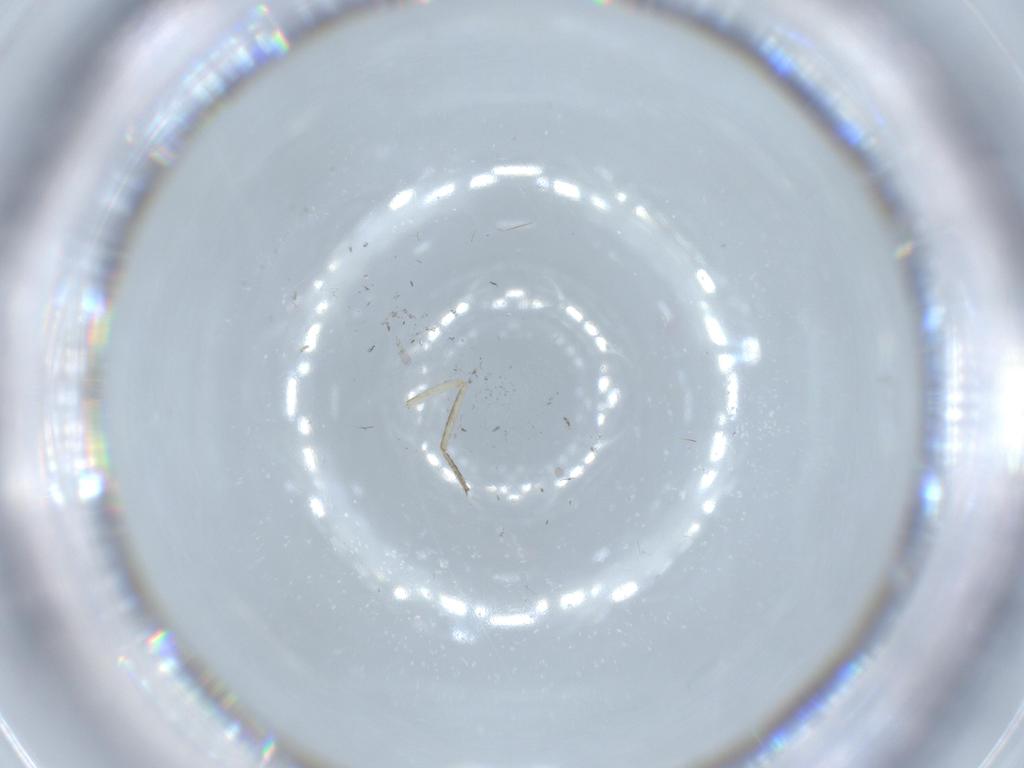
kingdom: Animalia
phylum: Arthropoda
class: Insecta
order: Diptera
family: Ceratopogonidae
